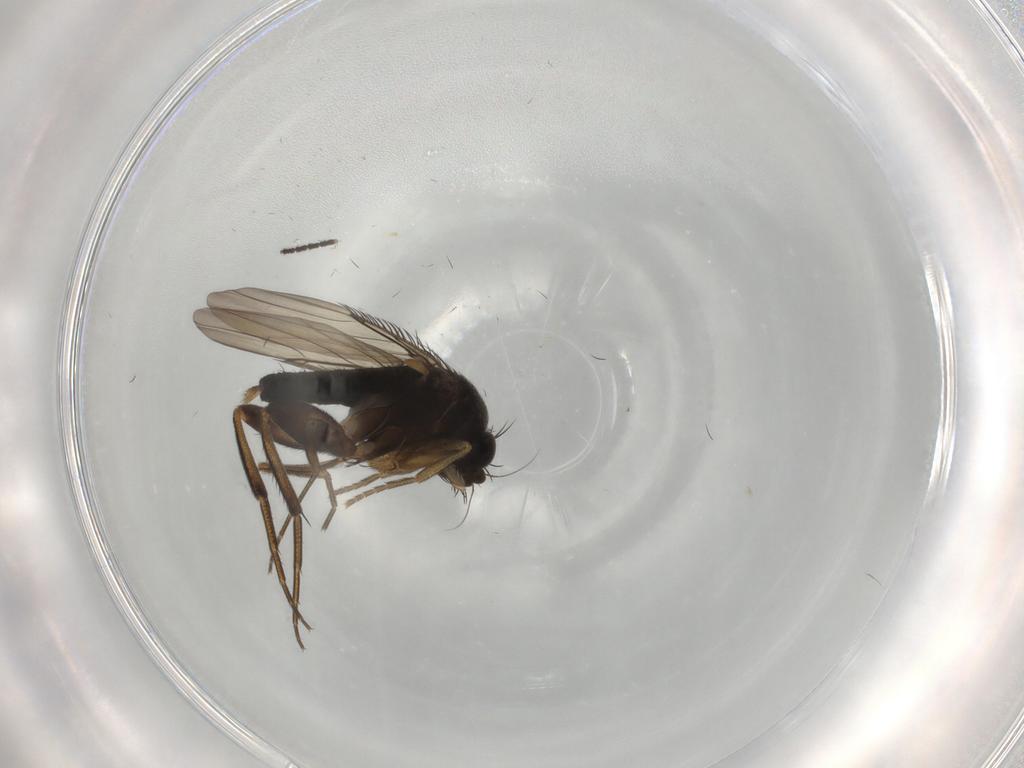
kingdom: Animalia
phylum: Arthropoda
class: Insecta
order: Diptera
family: Phoridae
